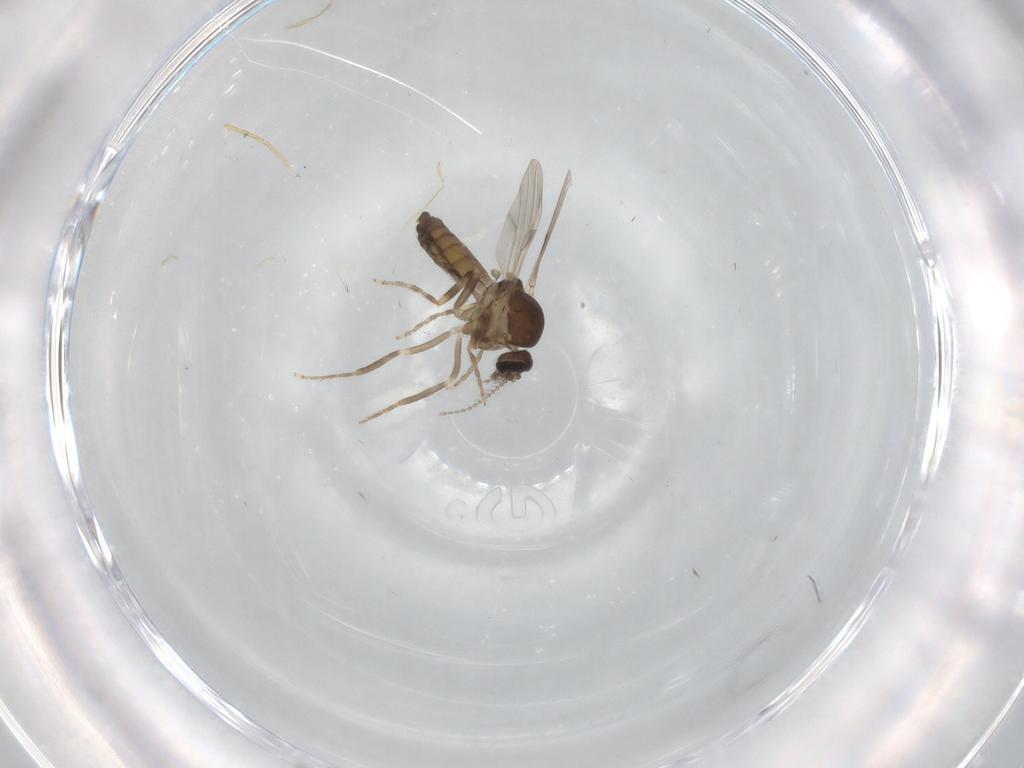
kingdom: Animalia
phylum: Arthropoda
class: Insecta
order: Diptera
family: Ceratopogonidae
